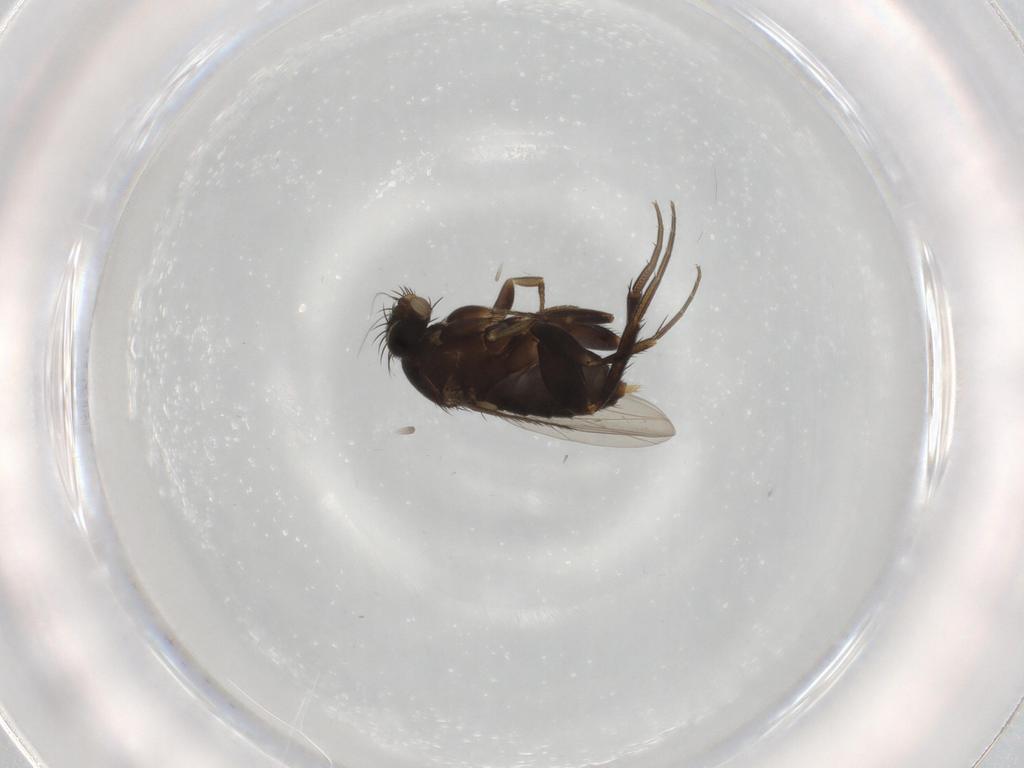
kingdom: Animalia
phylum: Arthropoda
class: Insecta
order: Diptera
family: Phoridae
